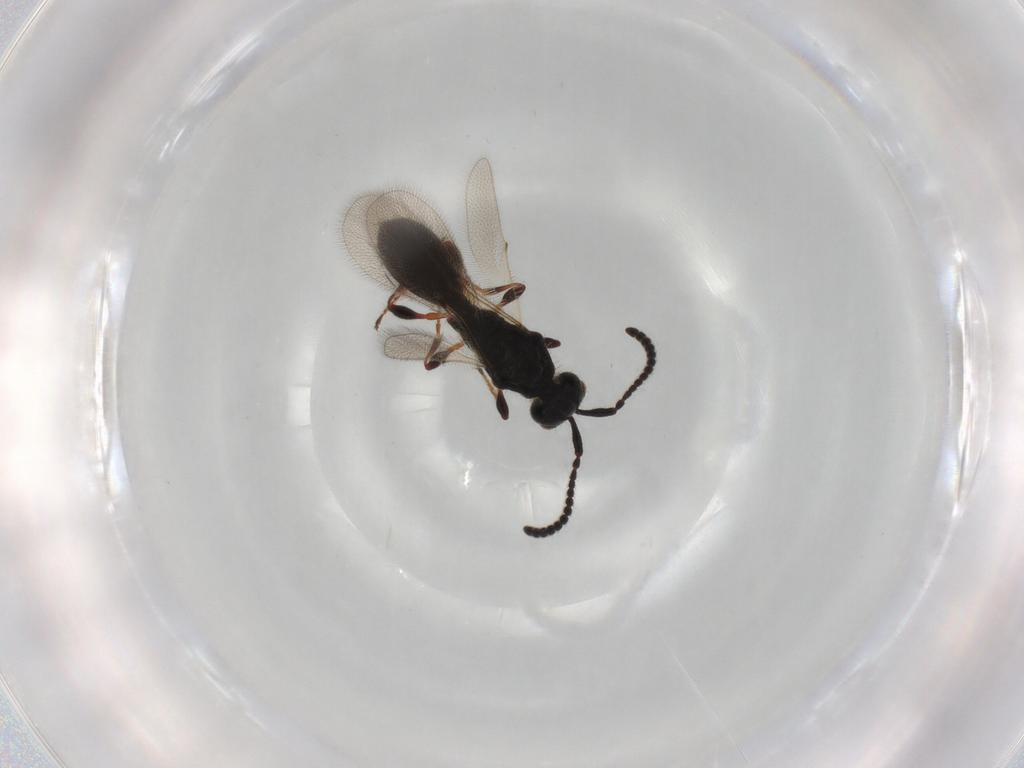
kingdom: Animalia
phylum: Arthropoda
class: Insecta
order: Hymenoptera
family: Diapriidae
